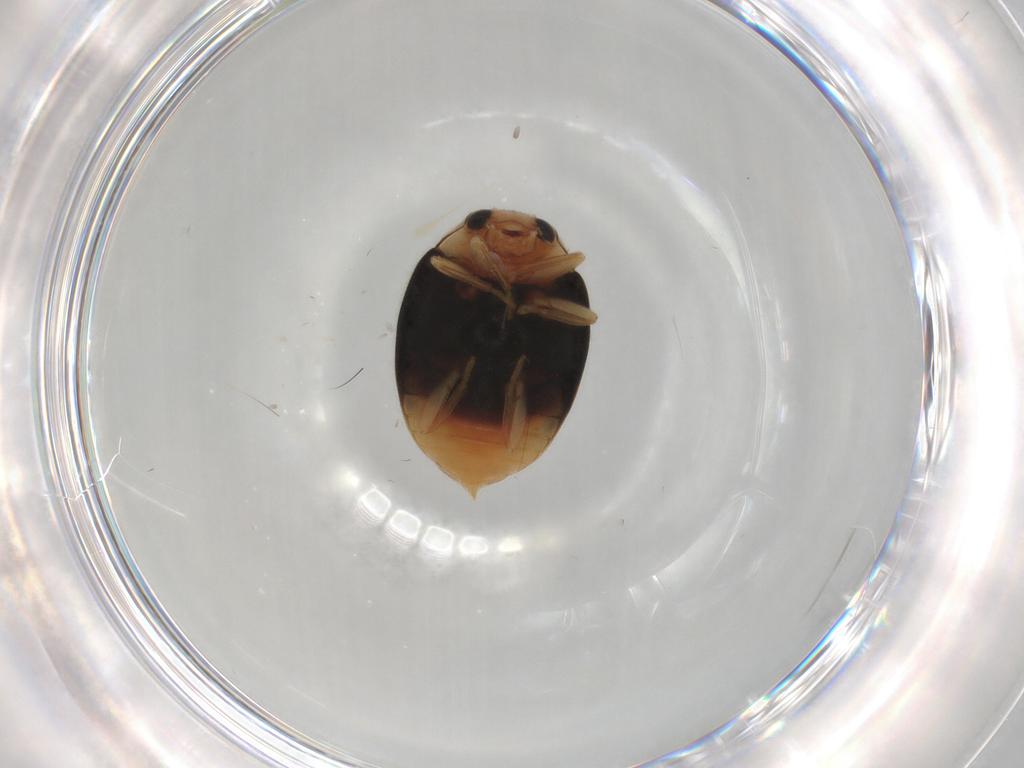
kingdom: Animalia
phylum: Arthropoda
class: Insecta
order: Coleoptera
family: Coccinellidae
